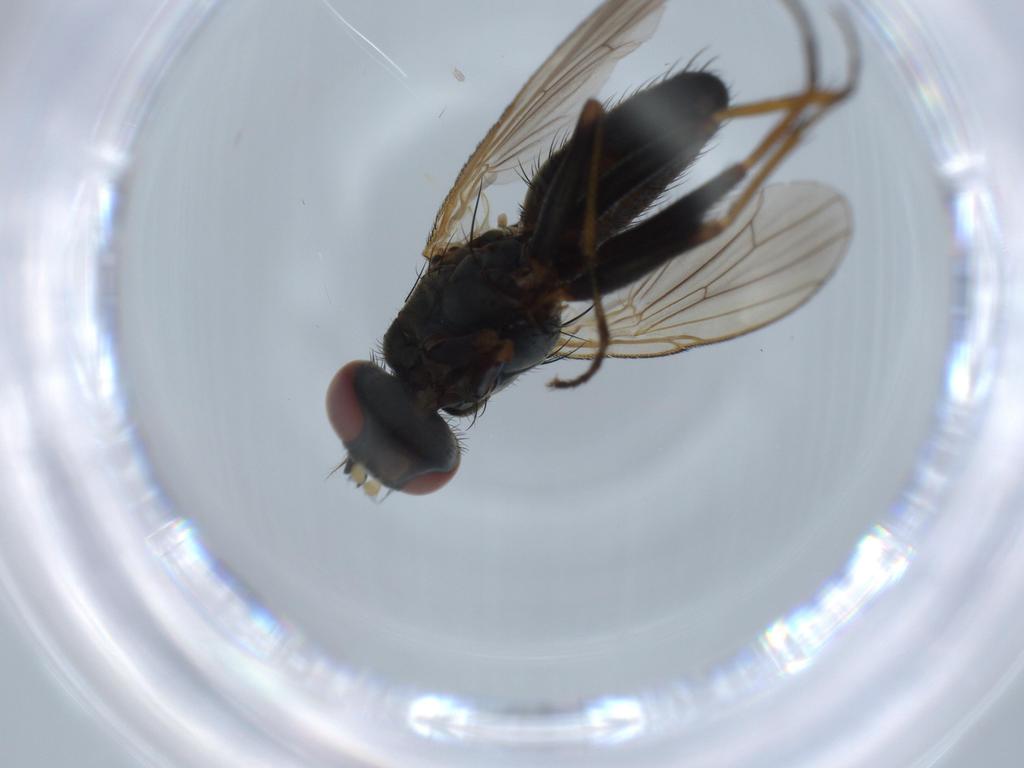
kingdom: Animalia
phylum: Arthropoda
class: Insecta
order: Diptera
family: Muscidae
